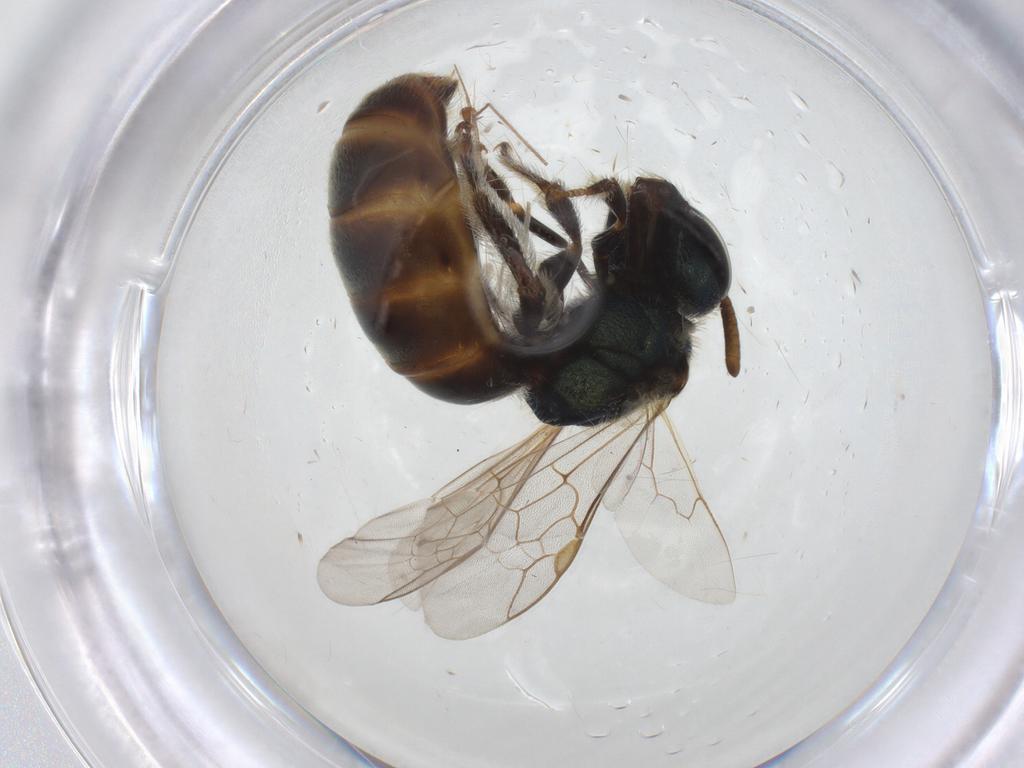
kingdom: Animalia
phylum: Arthropoda
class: Insecta
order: Hymenoptera
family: Halictidae
